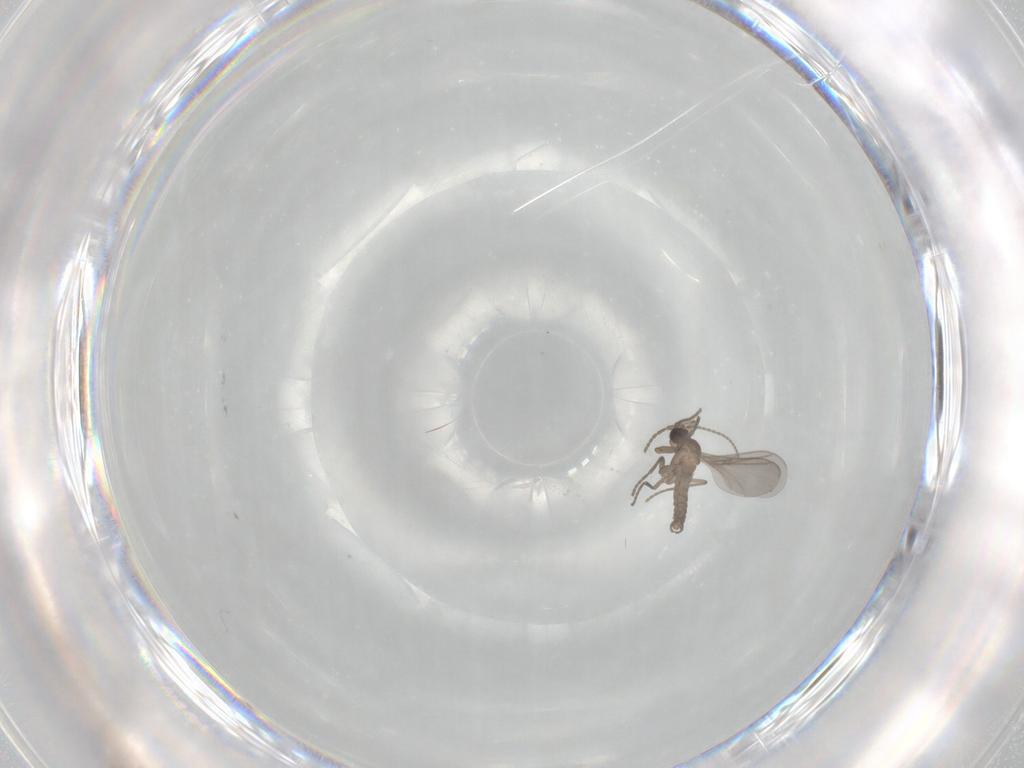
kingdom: Animalia
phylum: Arthropoda
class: Insecta
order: Diptera
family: Sciaridae
